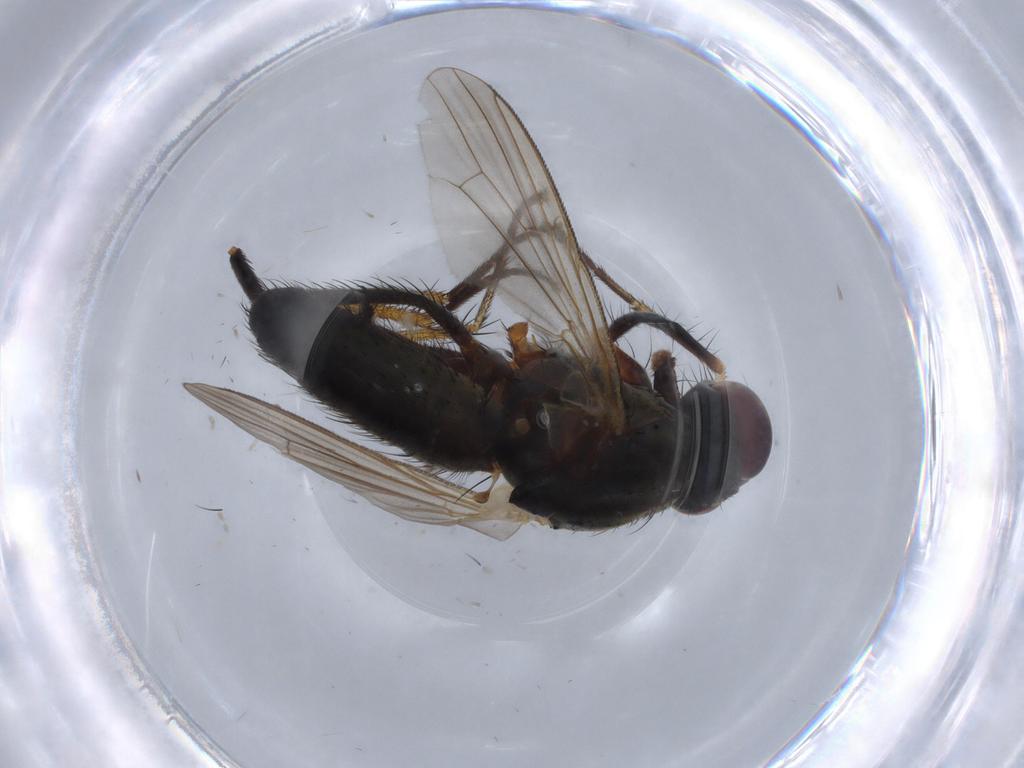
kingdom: Animalia
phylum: Arthropoda
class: Insecta
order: Diptera
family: Sarcophagidae
